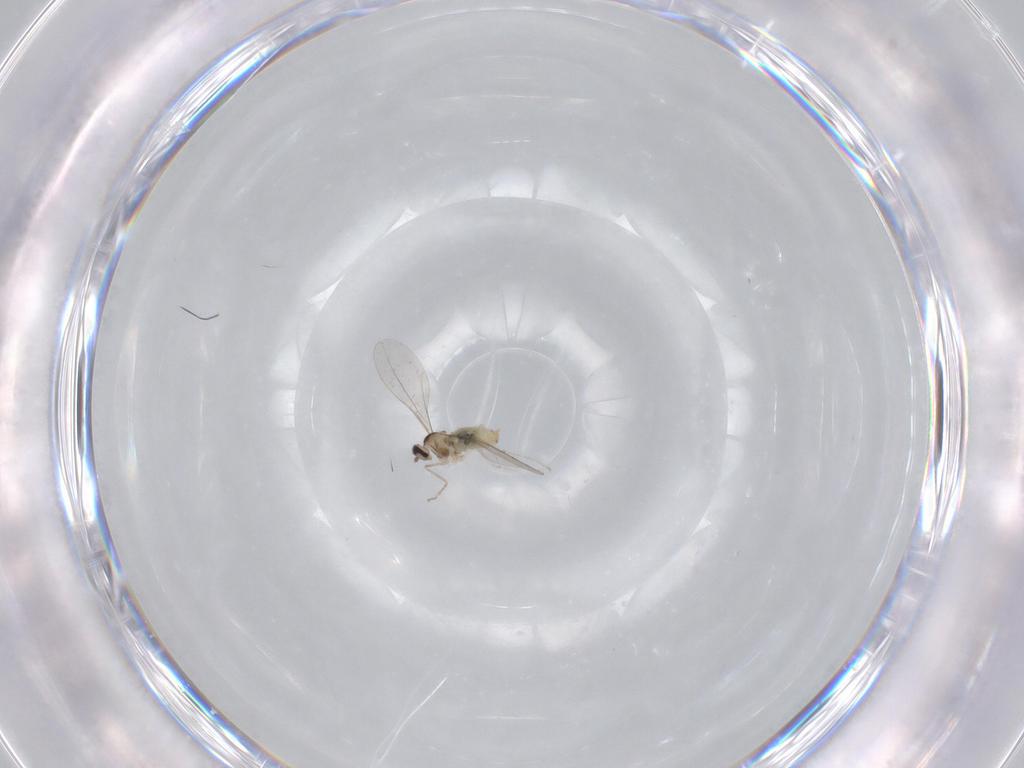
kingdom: Animalia
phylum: Arthropoda
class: Insecta
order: Diptera
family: Cecidomyiidae
